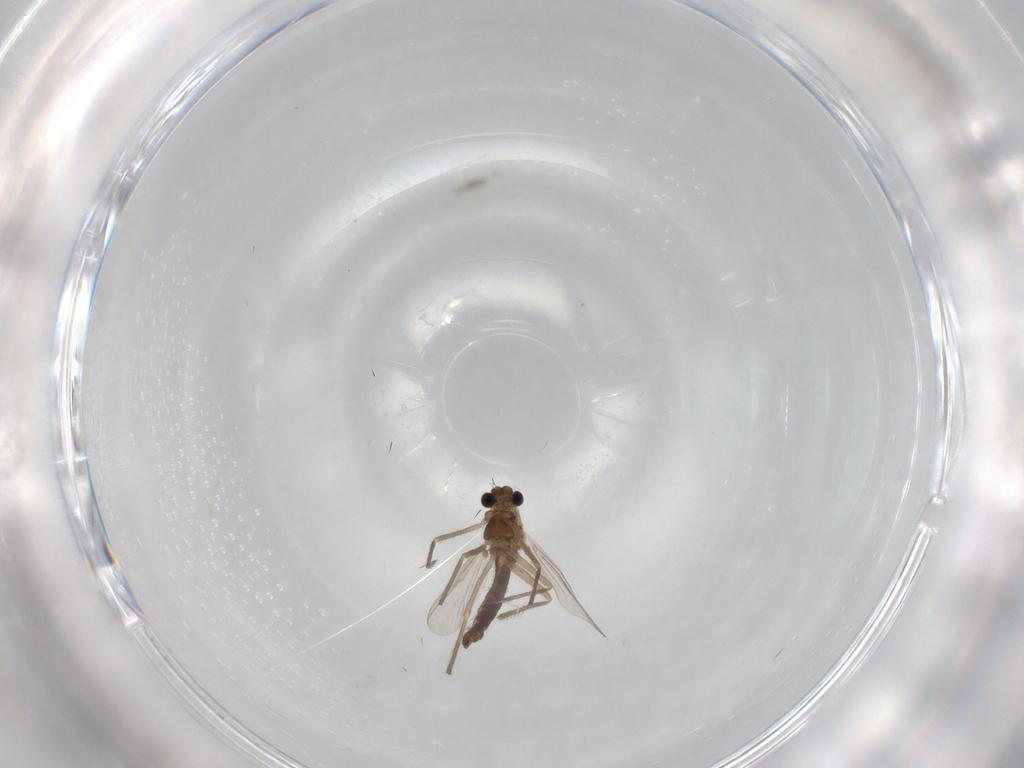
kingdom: Animalia
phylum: Arthropoda
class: Insecta
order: Diptera
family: Chironomidae
